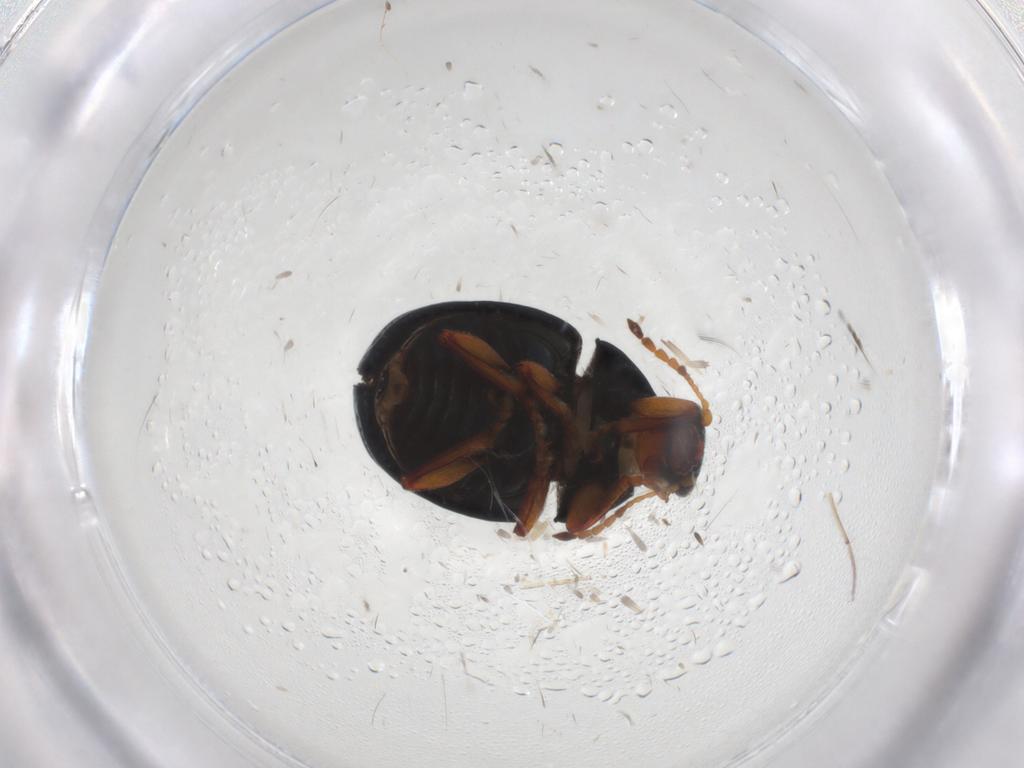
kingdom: Animalia
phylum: Arthropoda
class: Insecta
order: Coleoptera
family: Chrysomelidae
